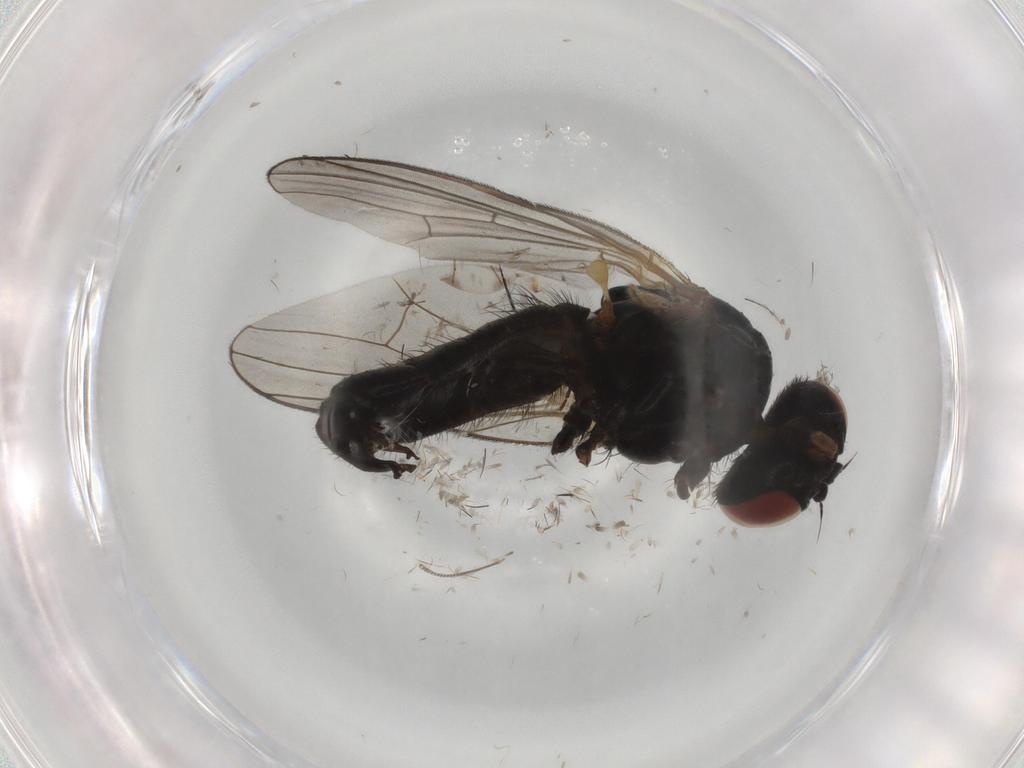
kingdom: Animalia
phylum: Arthropoda
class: Insecta
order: Diptera
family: Fannia
